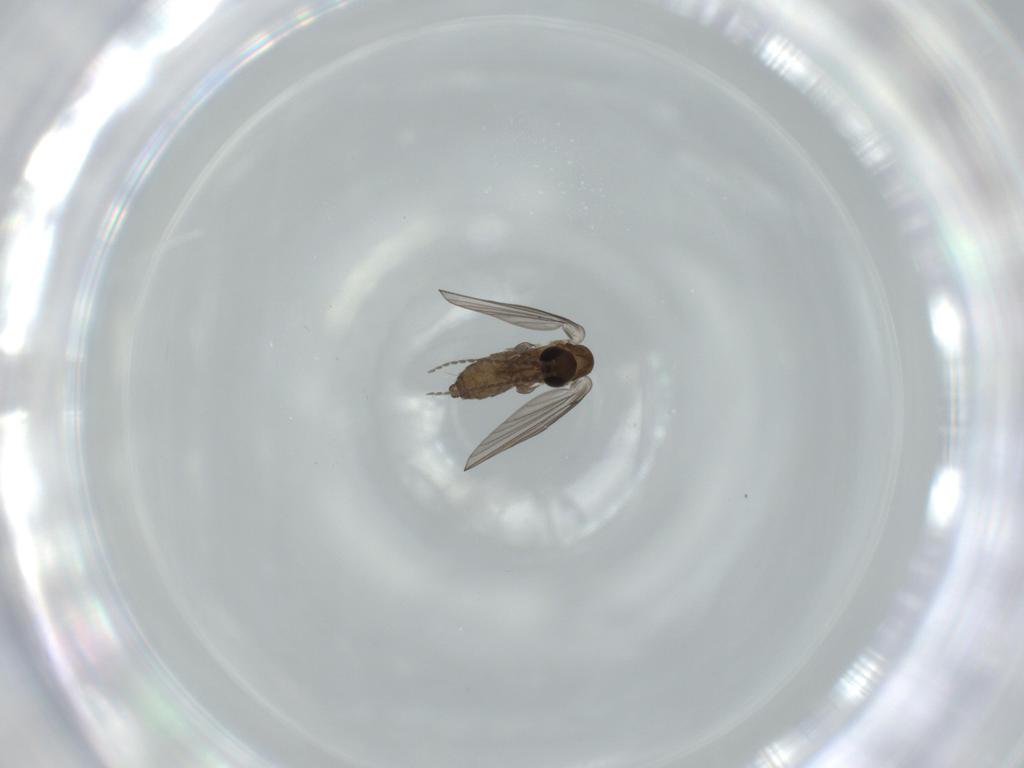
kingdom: Animalia
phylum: Arthropoda
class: Insecta
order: Diptera
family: Psychodidae
